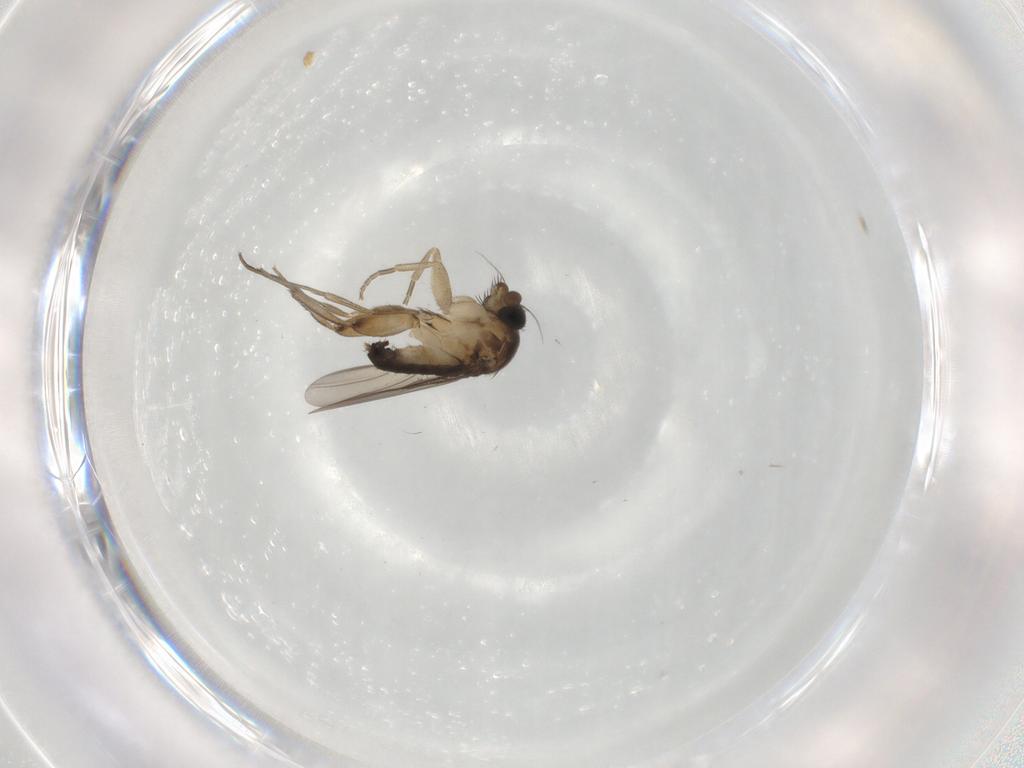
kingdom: Animalia
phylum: Arthropoda
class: Insecta
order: Diptera
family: Phoridae
